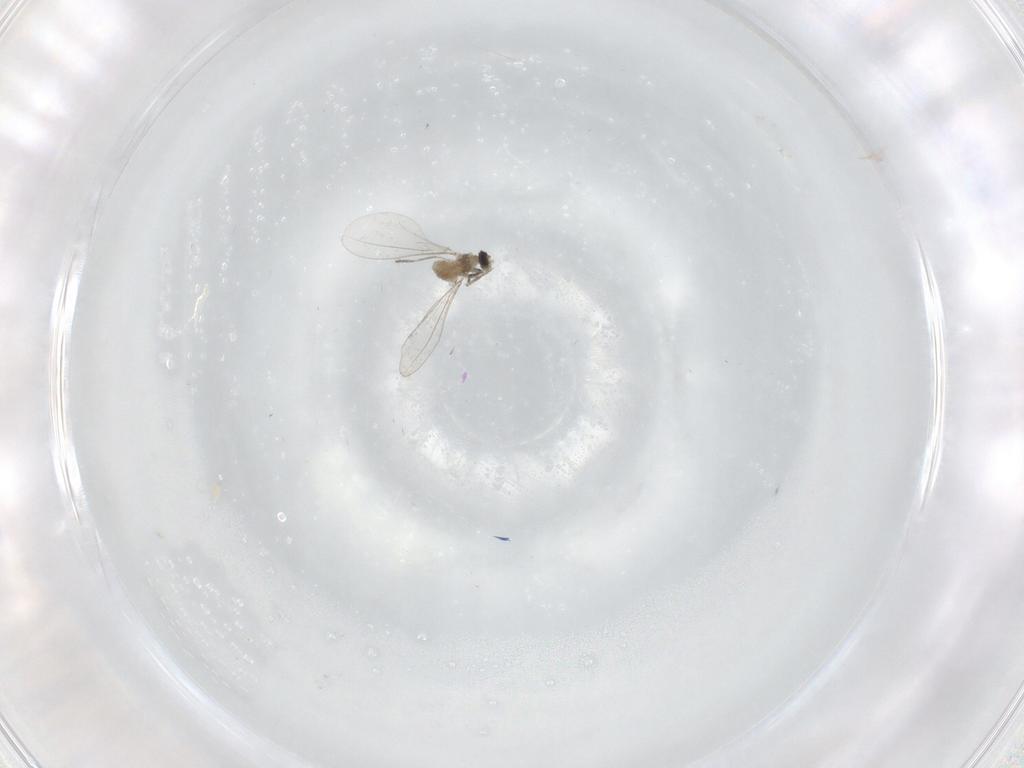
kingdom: Animalia
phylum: Arthropoda
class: Insecta
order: Diptera
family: Cecidomyiidae
